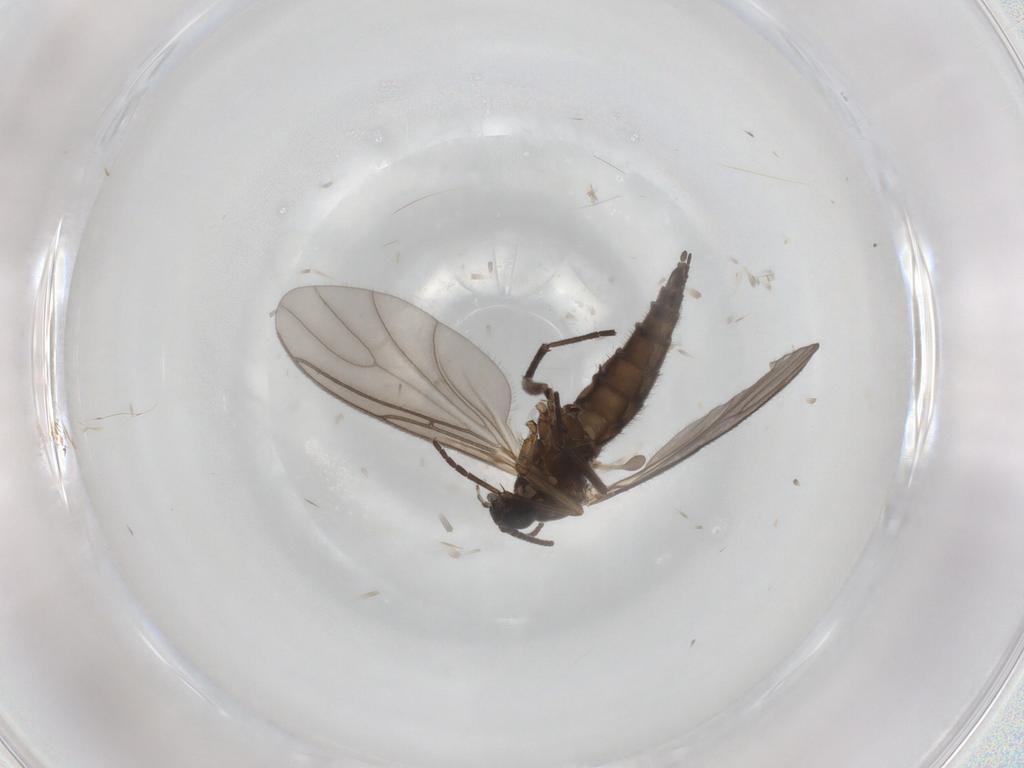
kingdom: Animalia
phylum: Arthropoda
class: Insecta
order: Diptera
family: Sciaridae
